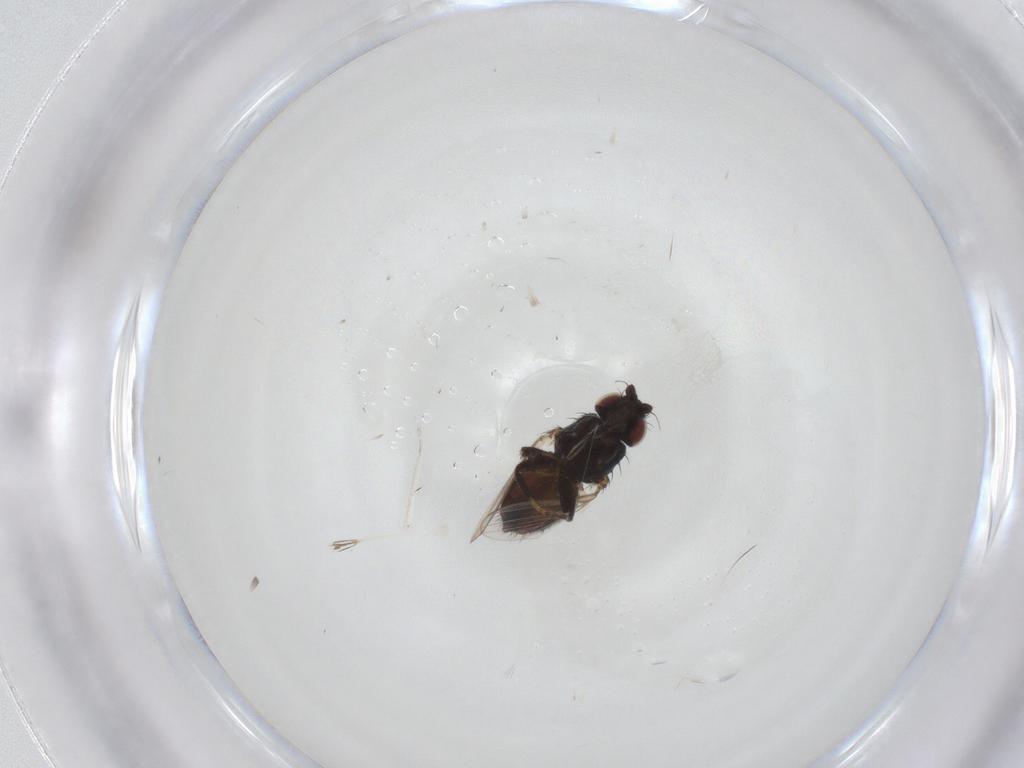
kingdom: Animalia
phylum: Arthropoda
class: Insecta
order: Diptera
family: Milichiidae
